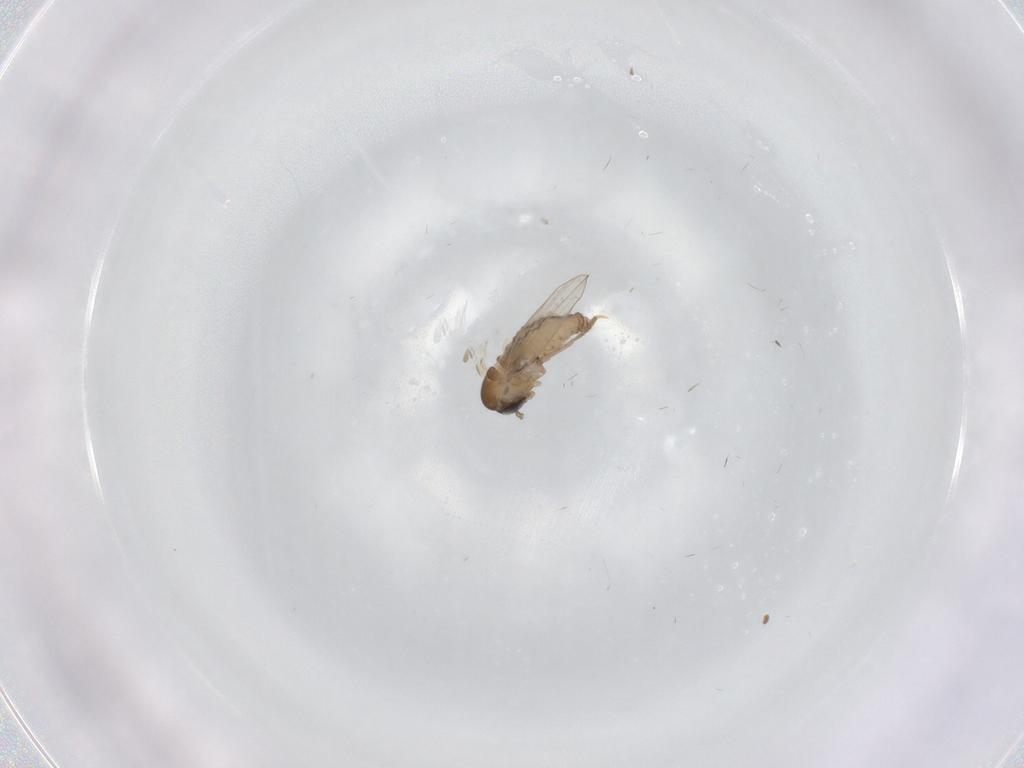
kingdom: Animalia
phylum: Arthropoda
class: Insecta
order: Diptera
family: Psychodidae
